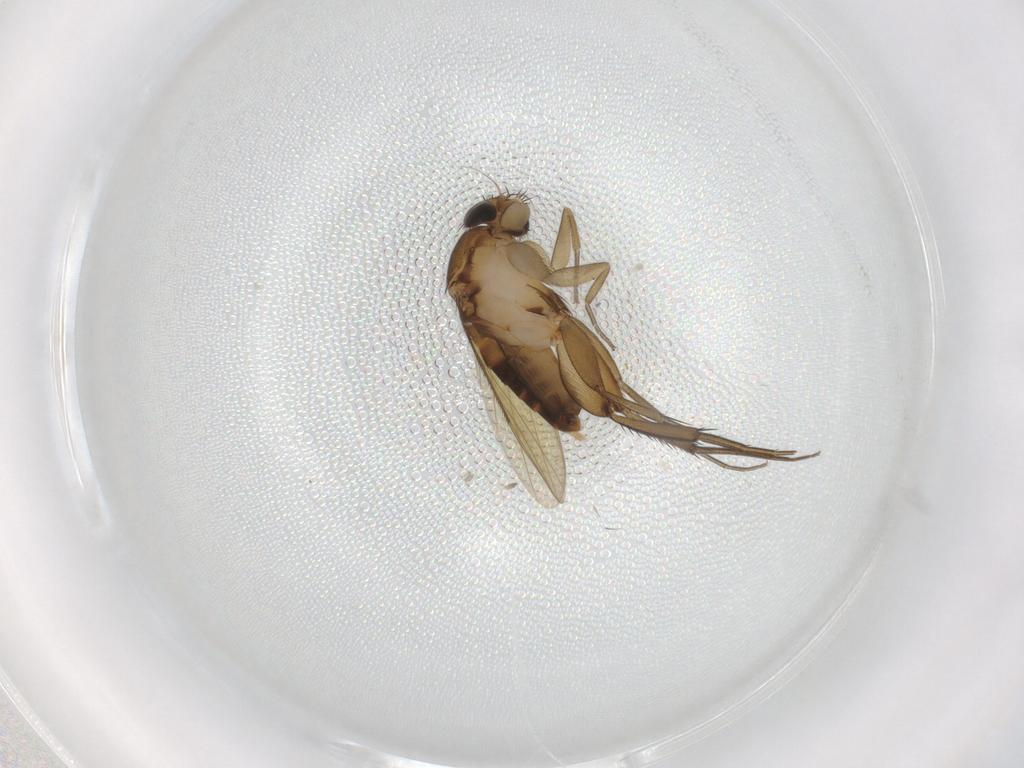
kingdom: Animalia
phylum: Arthropoda
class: Insecta
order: Diptera
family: Phoridae
